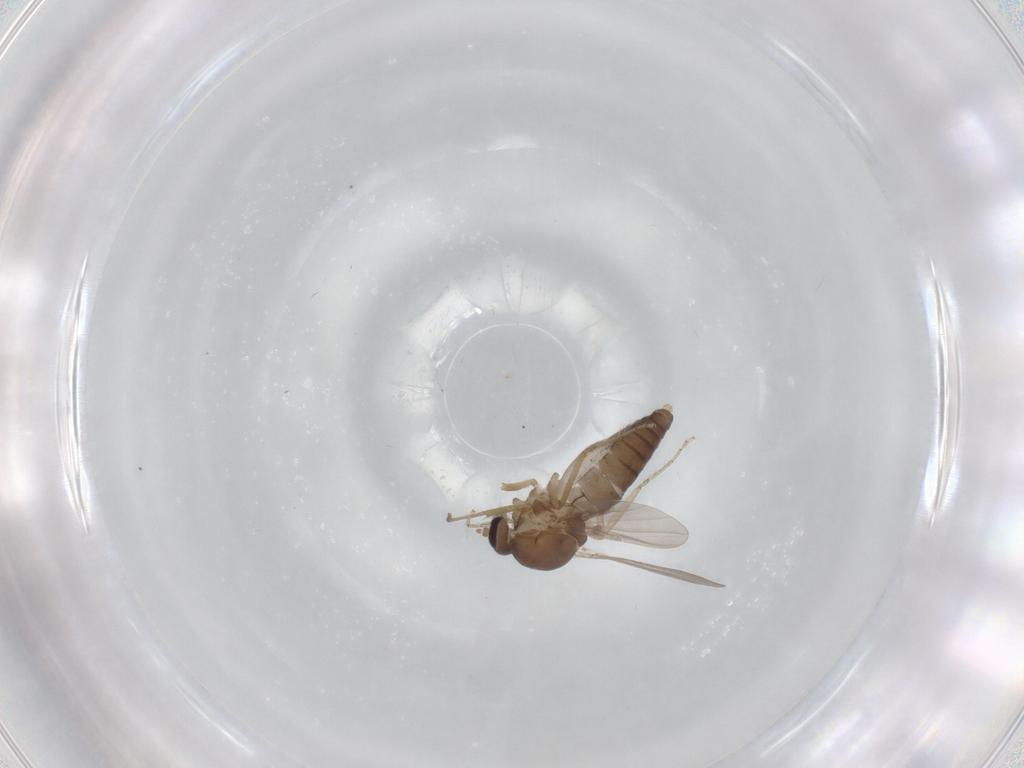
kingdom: Animalia
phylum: Arthropoda
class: Insecta
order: Diptera
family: Ceratopogonidae
